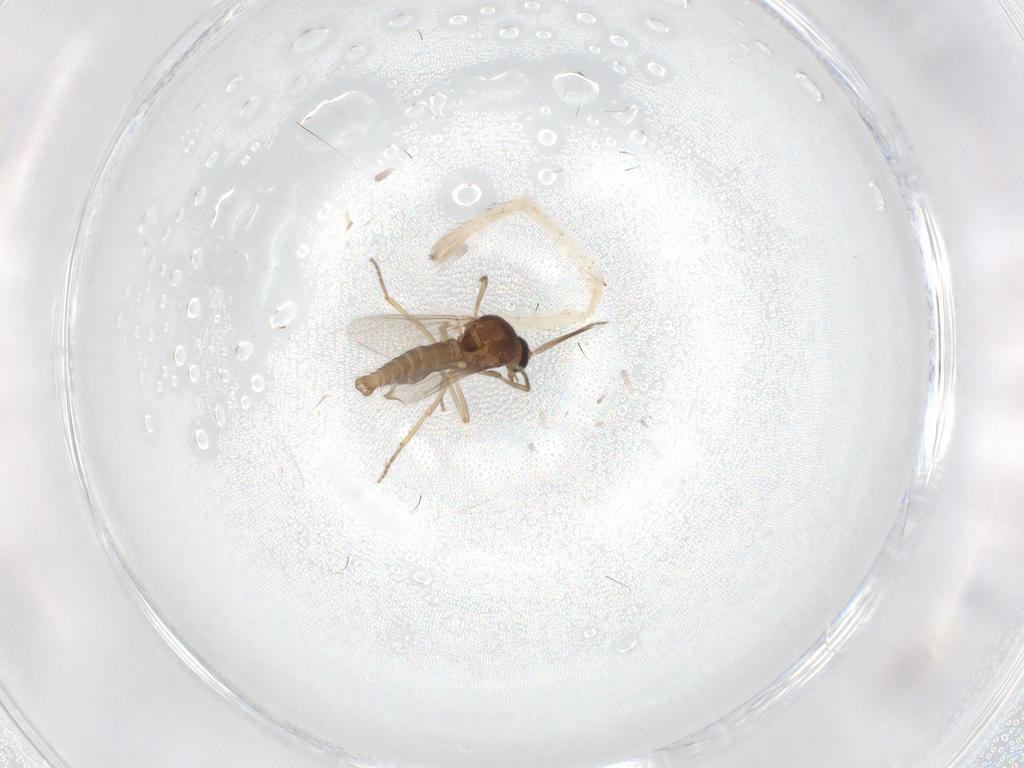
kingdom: Animalia
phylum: Arthropoda
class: Insecta
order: Diptera
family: Ceratopogonidae
